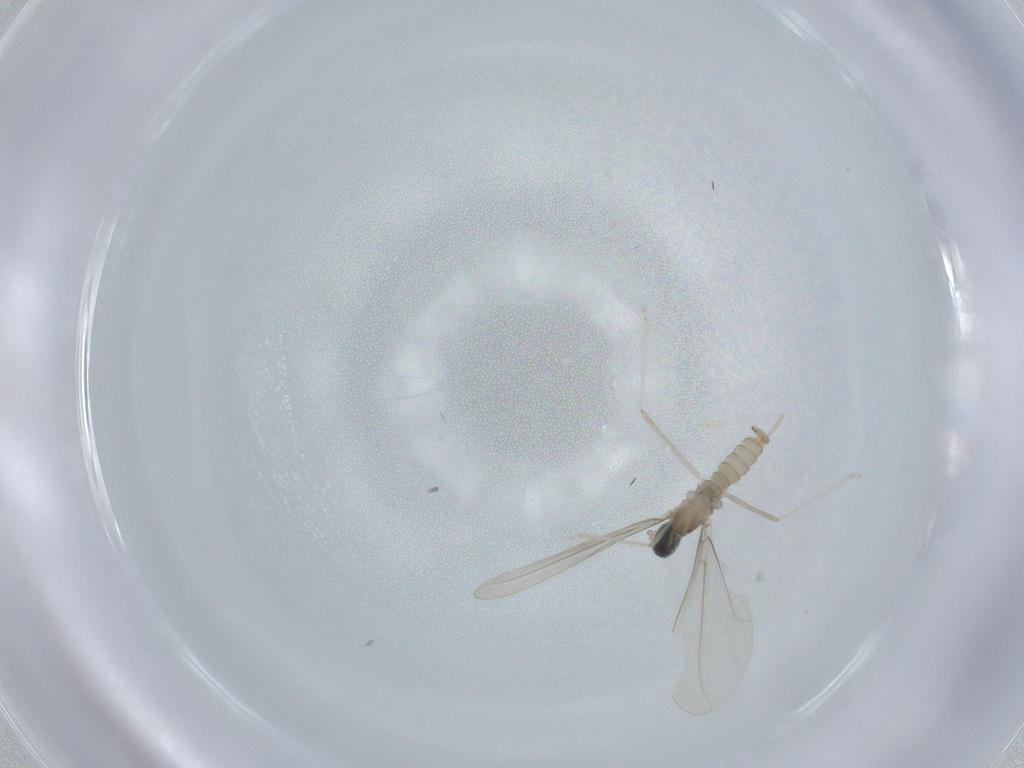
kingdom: Animalia
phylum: Arthropoda
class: Insecta
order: Diptera
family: Cecidomyiidae
